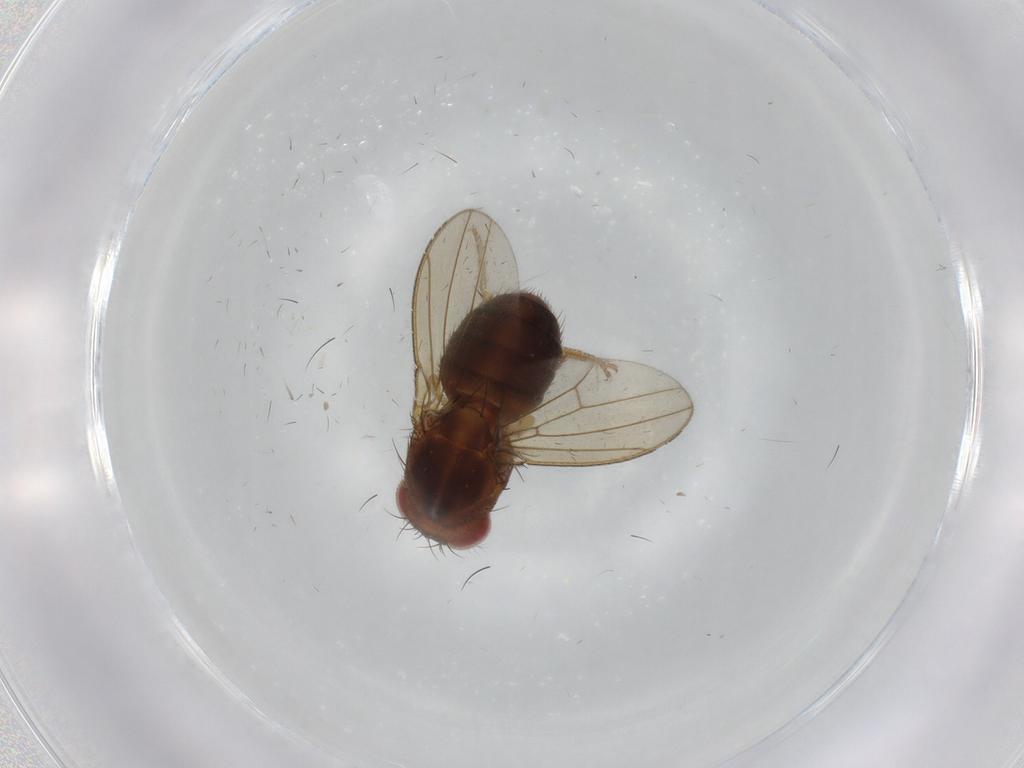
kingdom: Animalia
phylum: Arthropoda
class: Insecta
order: Diptera
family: Drosophilidae
